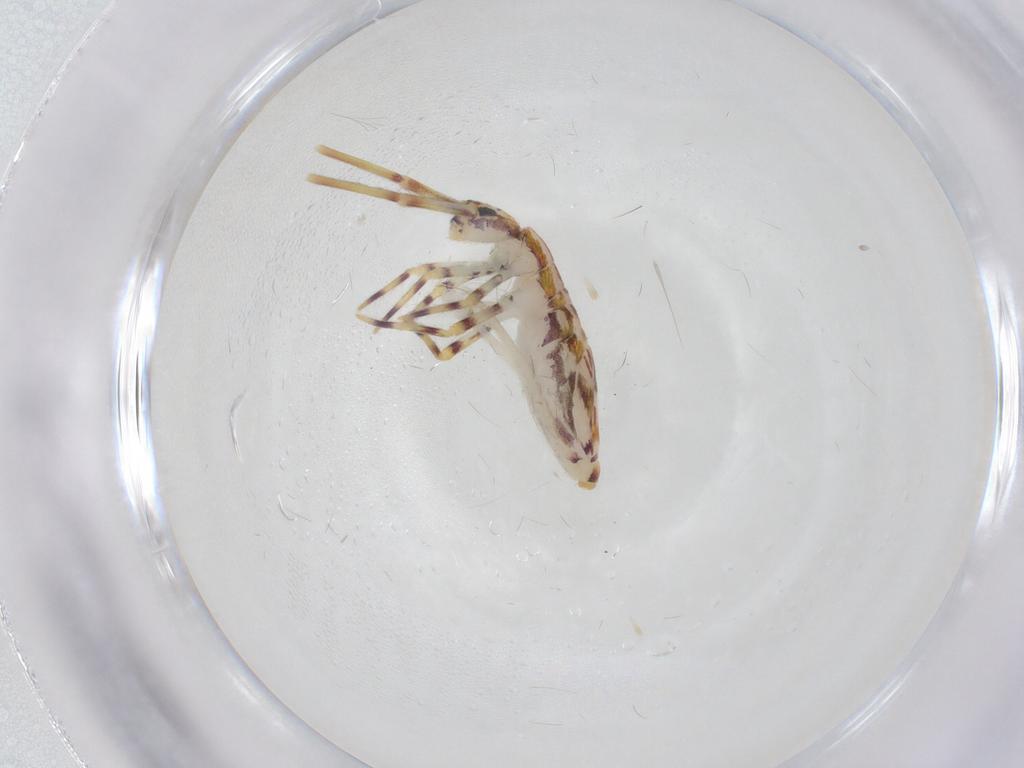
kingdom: Animalia
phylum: Arthropoda
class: Collembola
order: Entomobryomorpha
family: Entomobryidae
